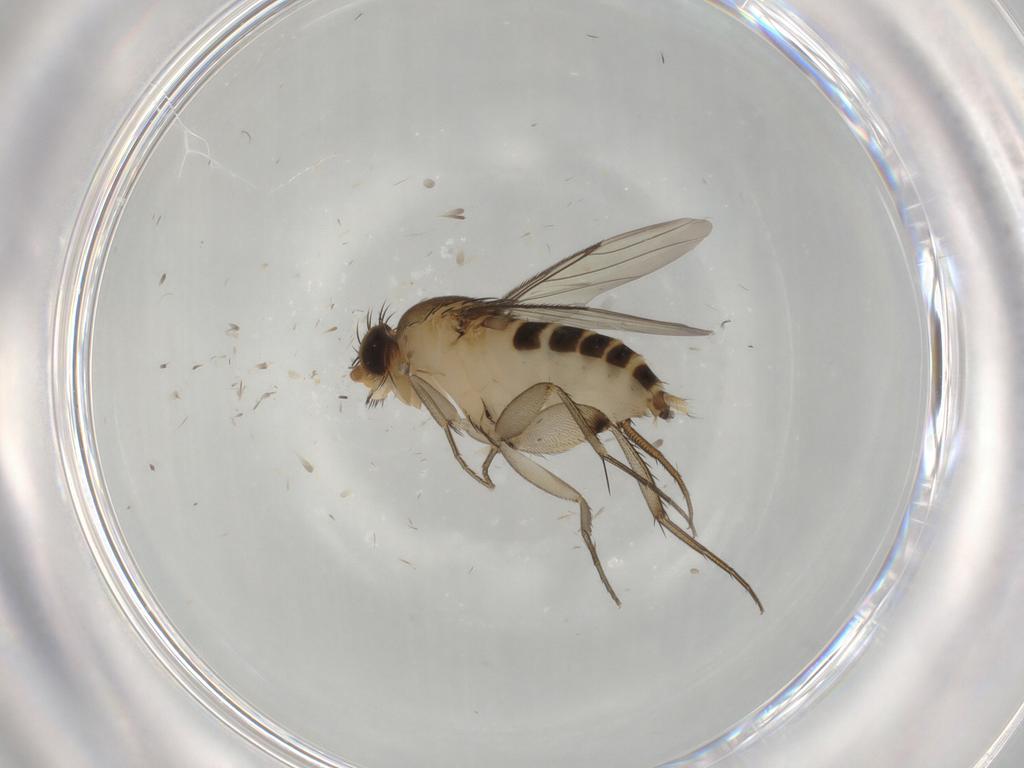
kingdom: Animalia
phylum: Arthropoda
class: Insecta
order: Diptera
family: Phoridae
